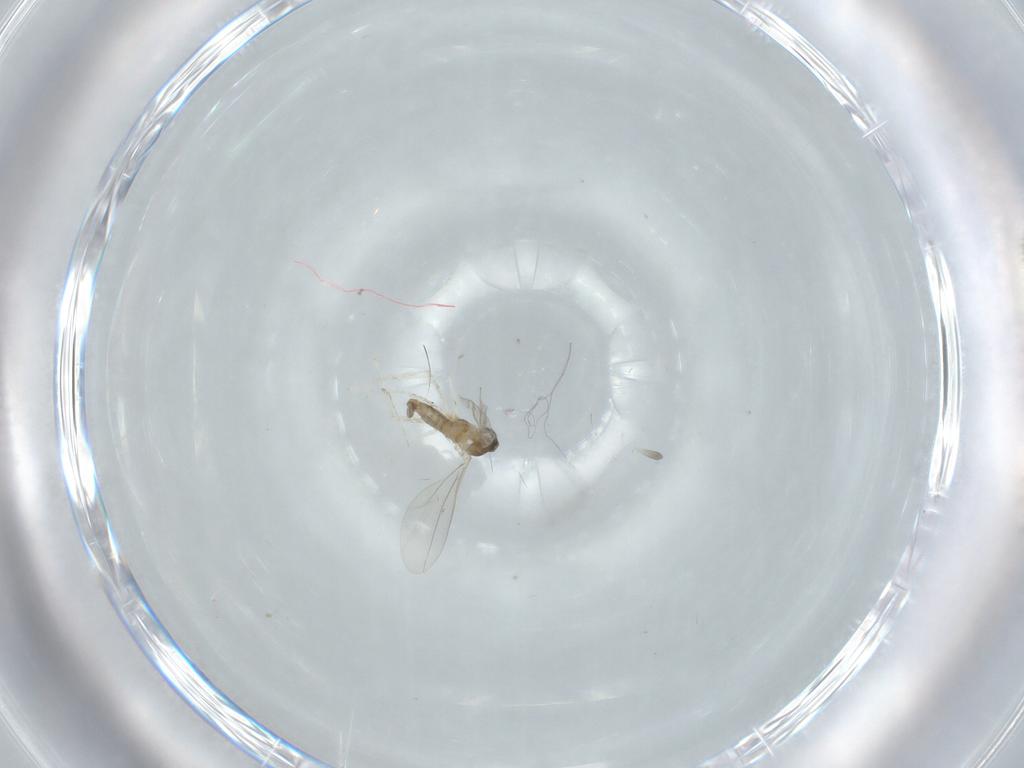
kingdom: Animalia
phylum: Arthropoda
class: Insecta
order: Diptera
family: Cecidomyiidae
